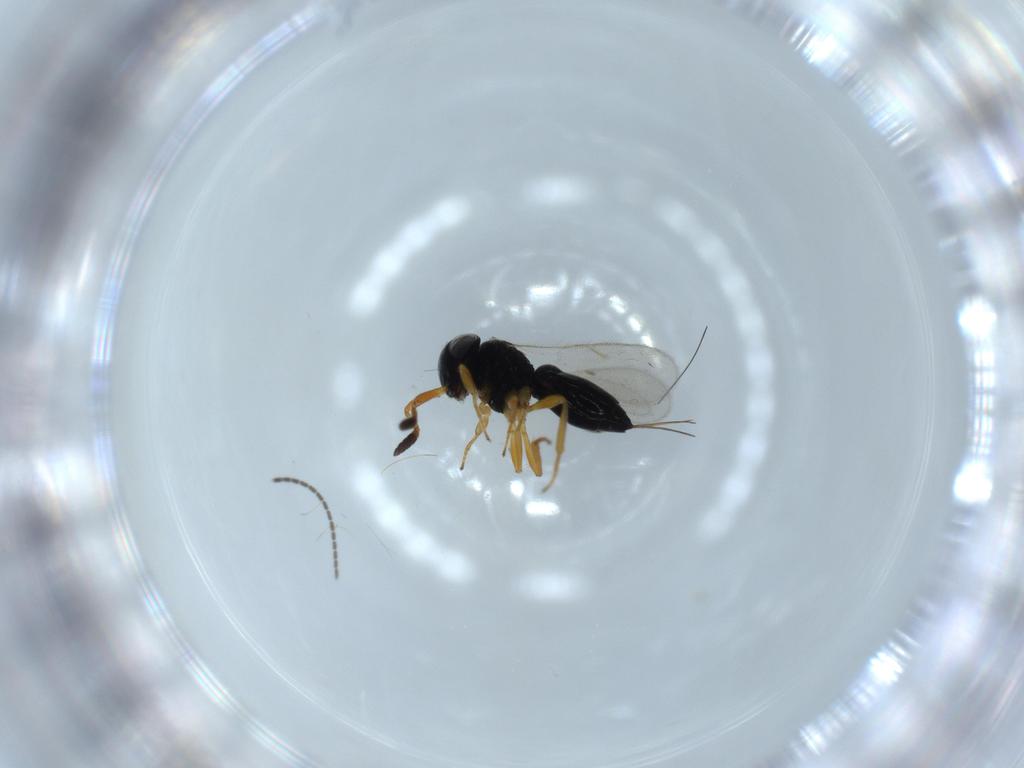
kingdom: Animalia
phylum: Arthropoda
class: Insecta
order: Hymenoptera
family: Scelionidae
